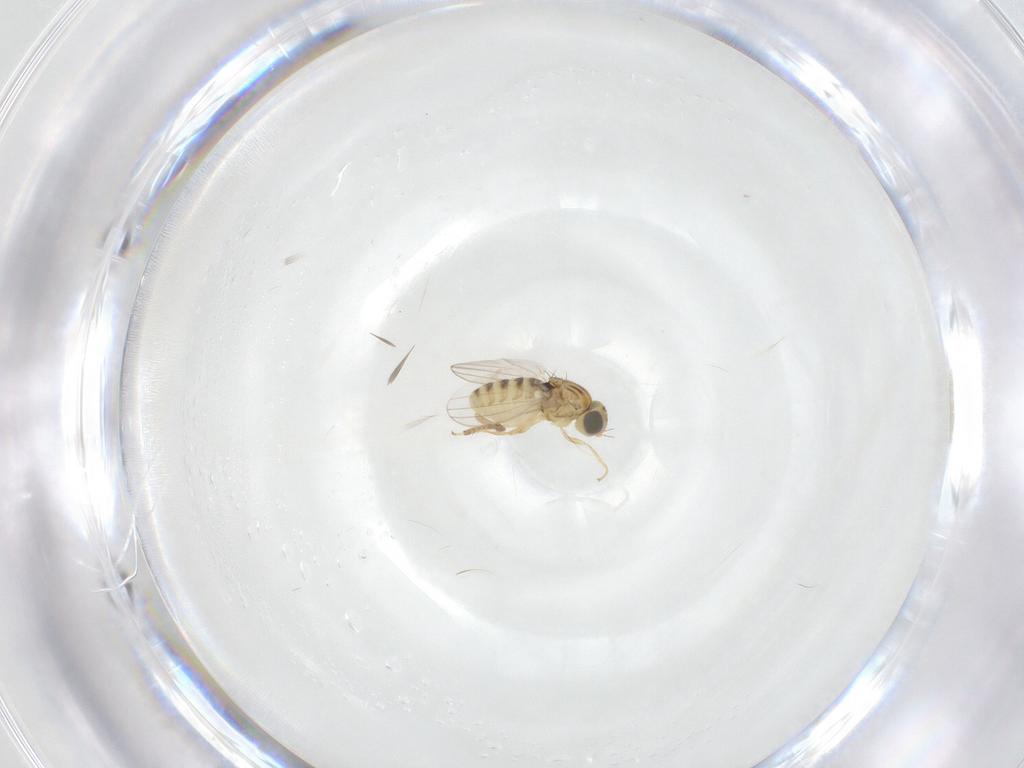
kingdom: Animalia
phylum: Arthropoda
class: Insecta
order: Diptera
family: Chyromyidae
